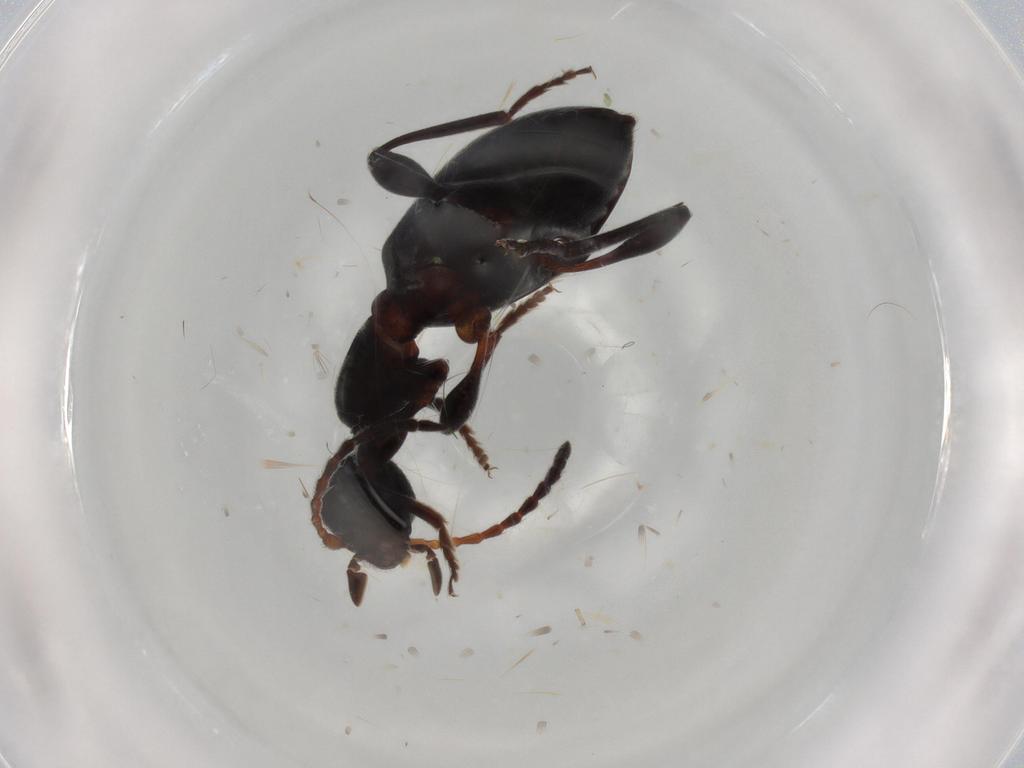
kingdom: Animalia
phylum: Arthropoda
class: Insecta
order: Coleoptera
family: Anthicidae
